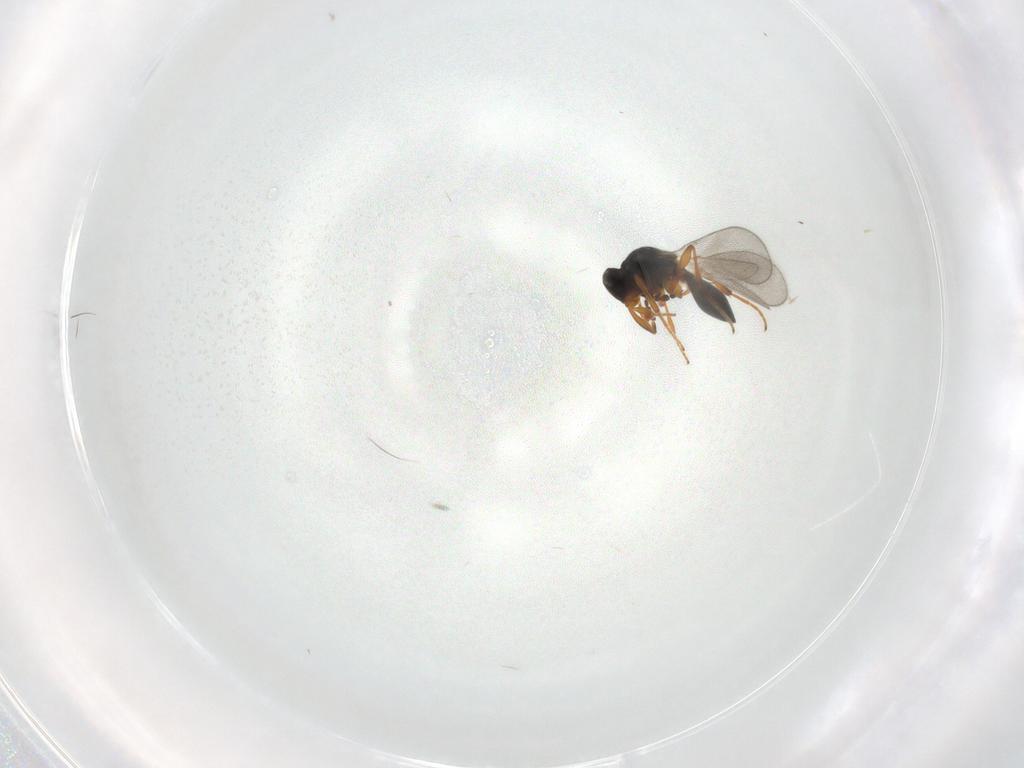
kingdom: Animalia
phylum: Arthropoda
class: Insecta
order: Hymenoptera
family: Platygastridae
